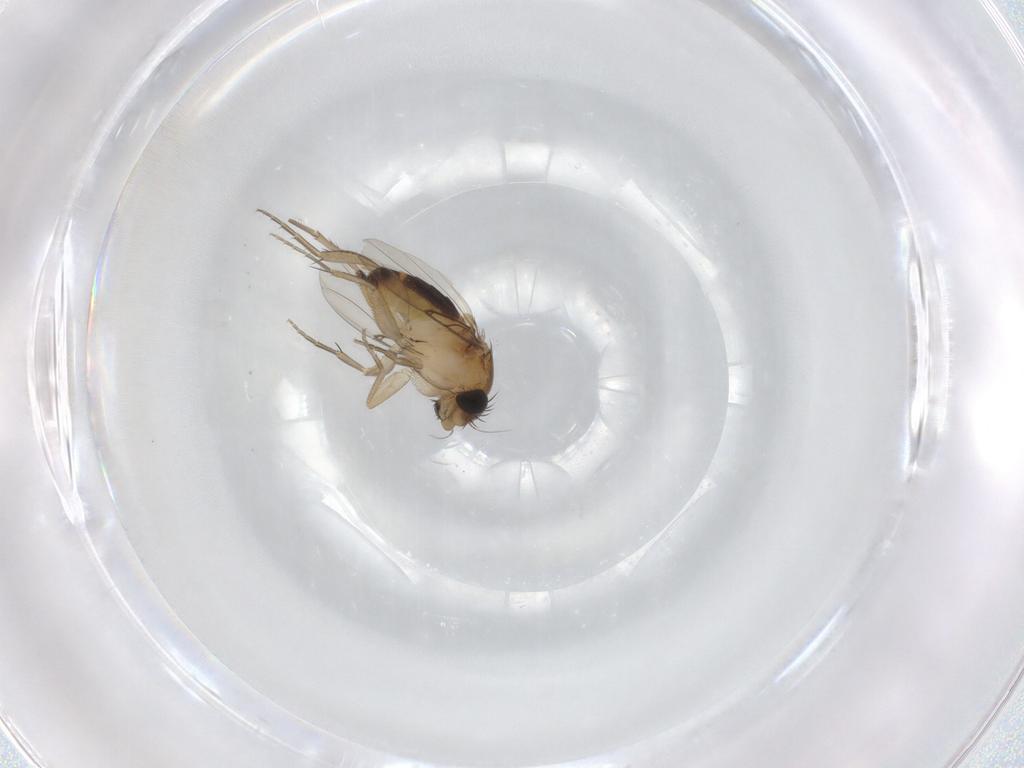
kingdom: Animalia
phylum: Arthropoda
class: Insecta
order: Diptera
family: Phoridae
